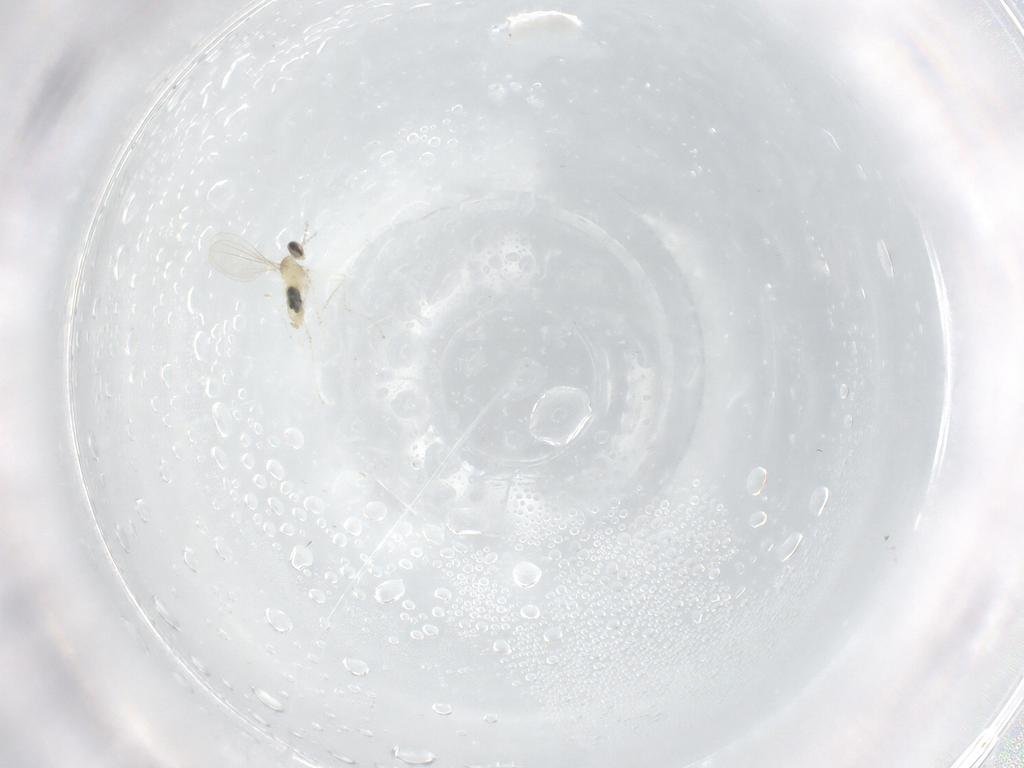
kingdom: Animalia
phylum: Arthropoda
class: Insecta
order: Diptera
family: Cecidomyiidae
